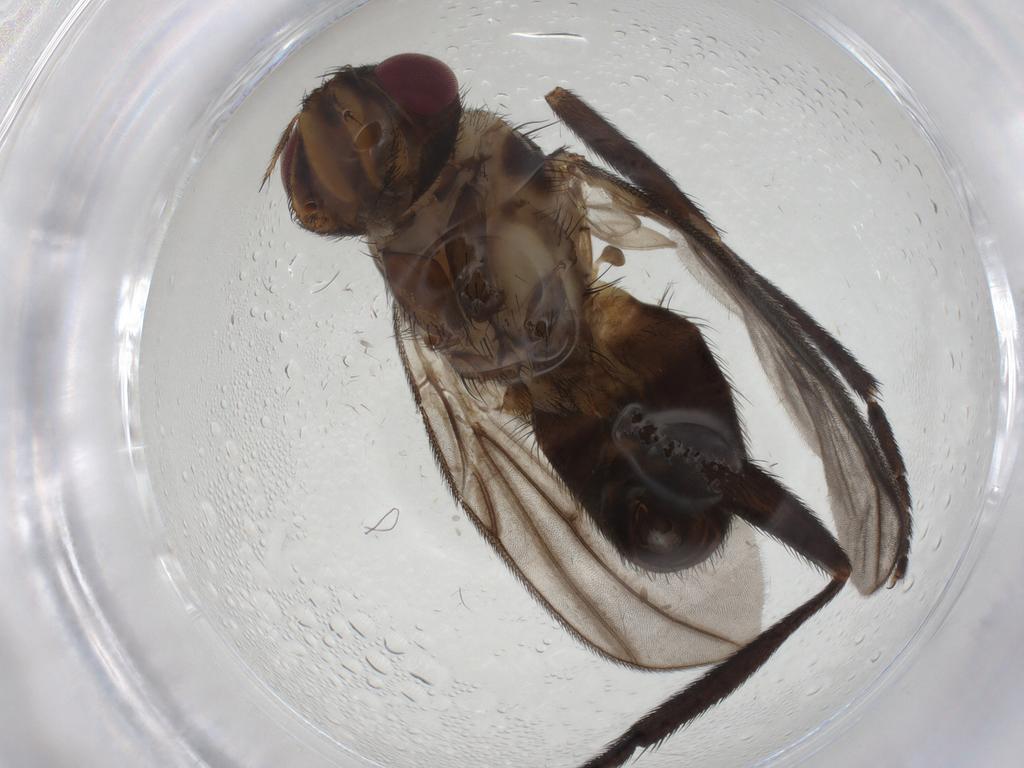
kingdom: Animalia
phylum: Arthropoda
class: Insecta
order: Diptera
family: Calliphoridae
